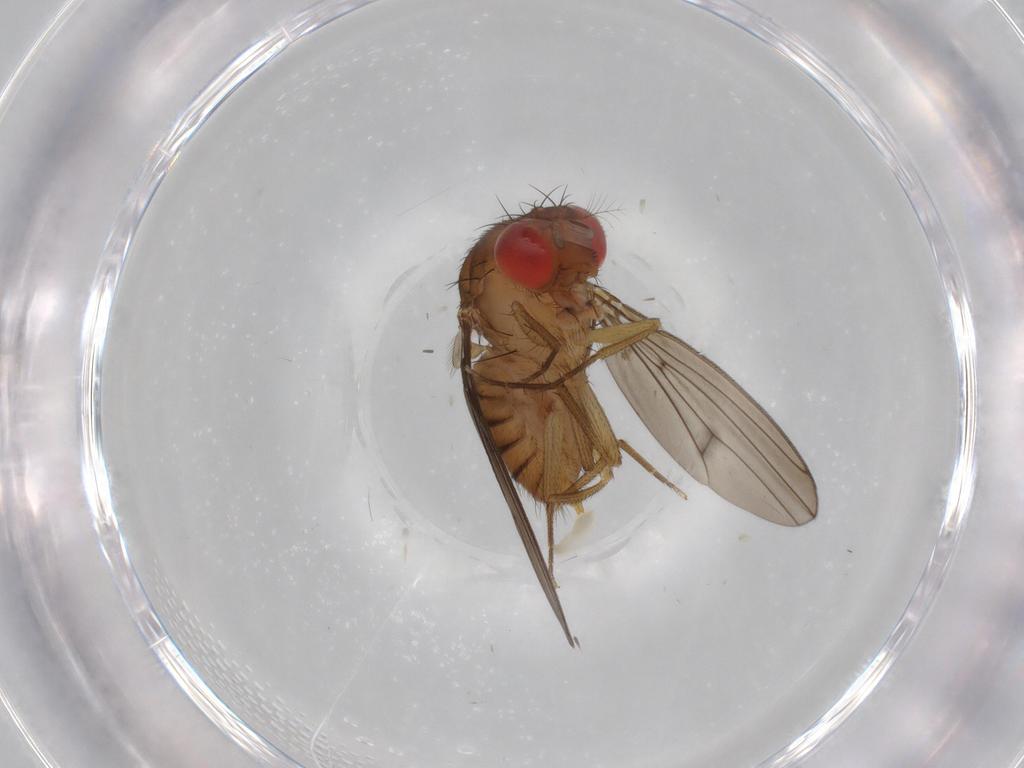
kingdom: Animalia
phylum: Arthropoda
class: Insecta
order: Diptera
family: Drosophilidae
